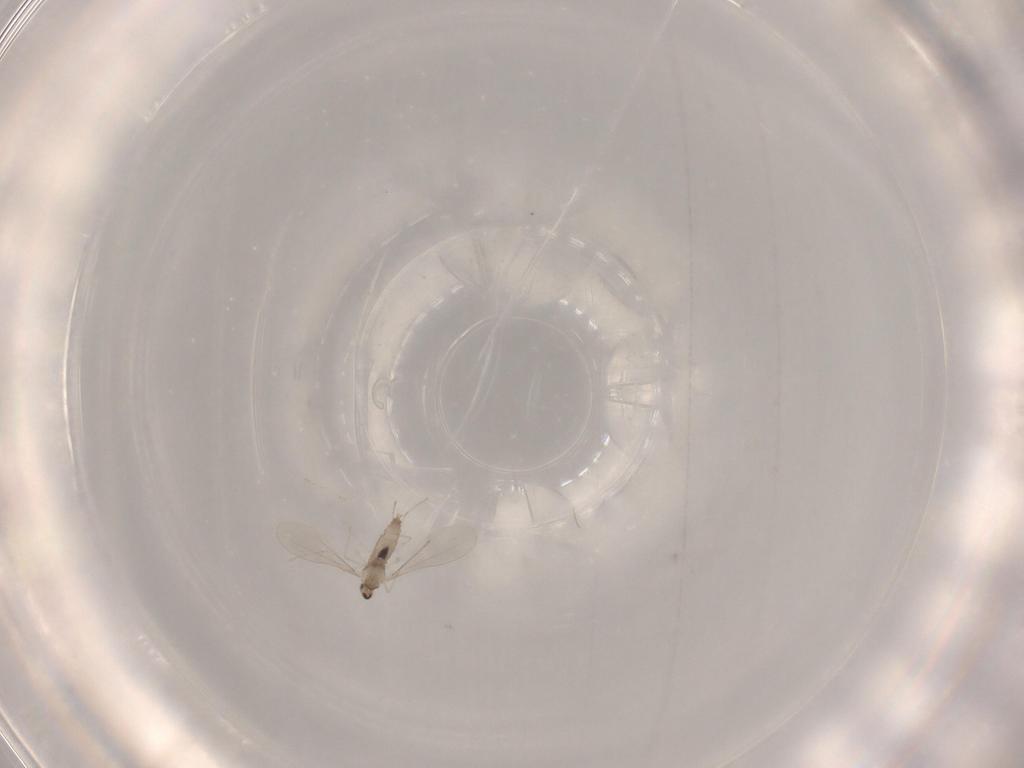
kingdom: Animalia
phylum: Arthropoda
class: Insecta
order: Diptera
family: Cecidomyiidae
